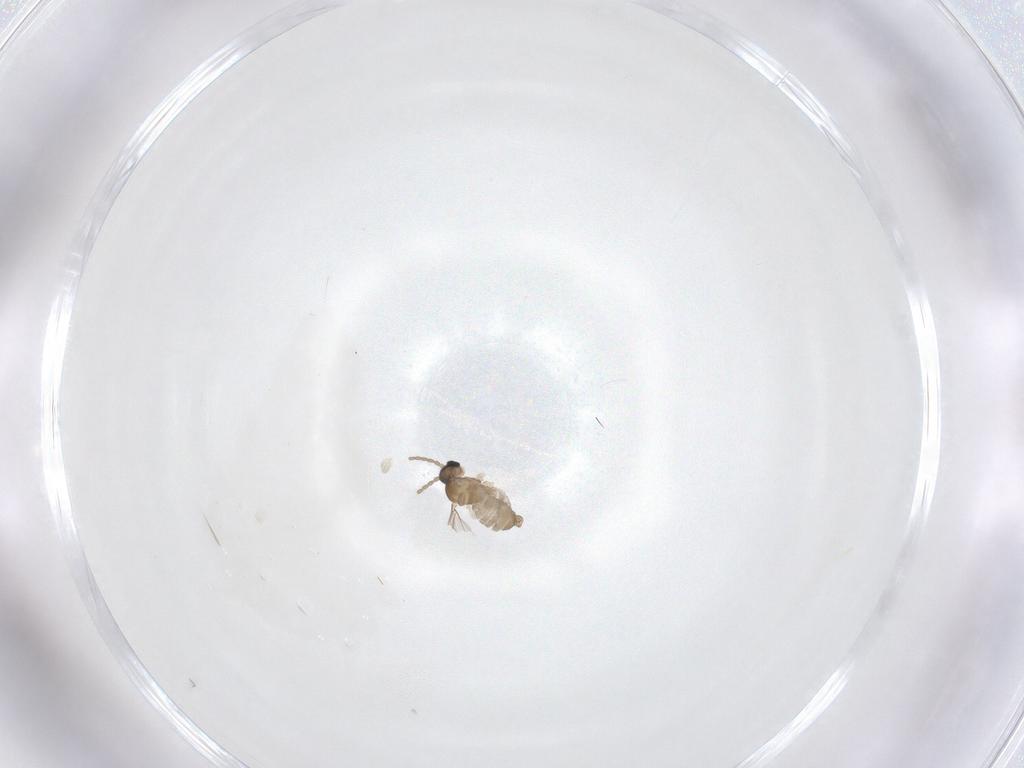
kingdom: Animalia
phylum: Arthropoda
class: Insecta
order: Diptera
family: Cecidomyiidae
